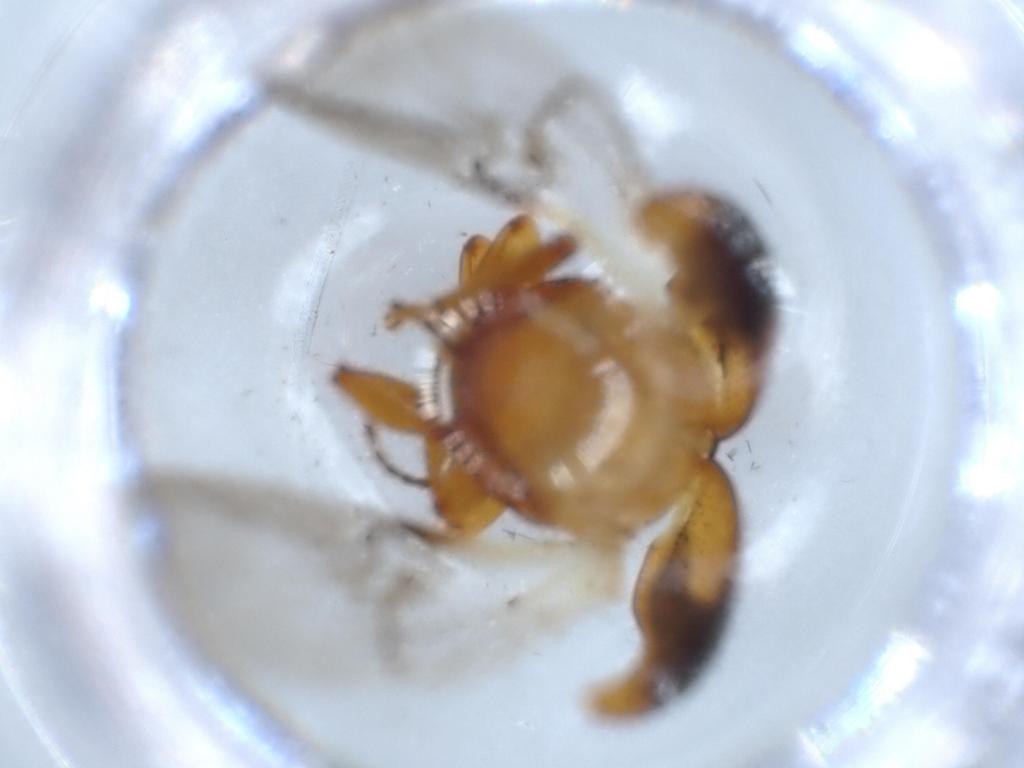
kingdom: Animalia
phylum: Arthropoda
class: Insecta
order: Coleoptera
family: Chrysomelidae
